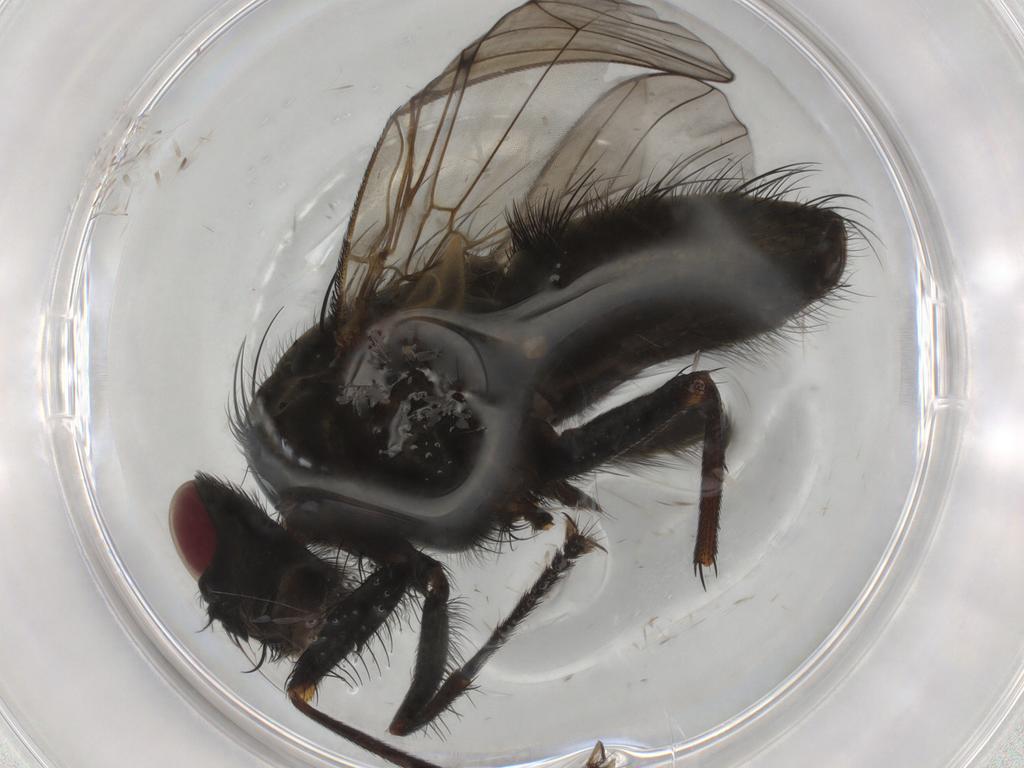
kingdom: Animalia
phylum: Arthropoda
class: Insecta
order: Diptera
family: Muscidae
